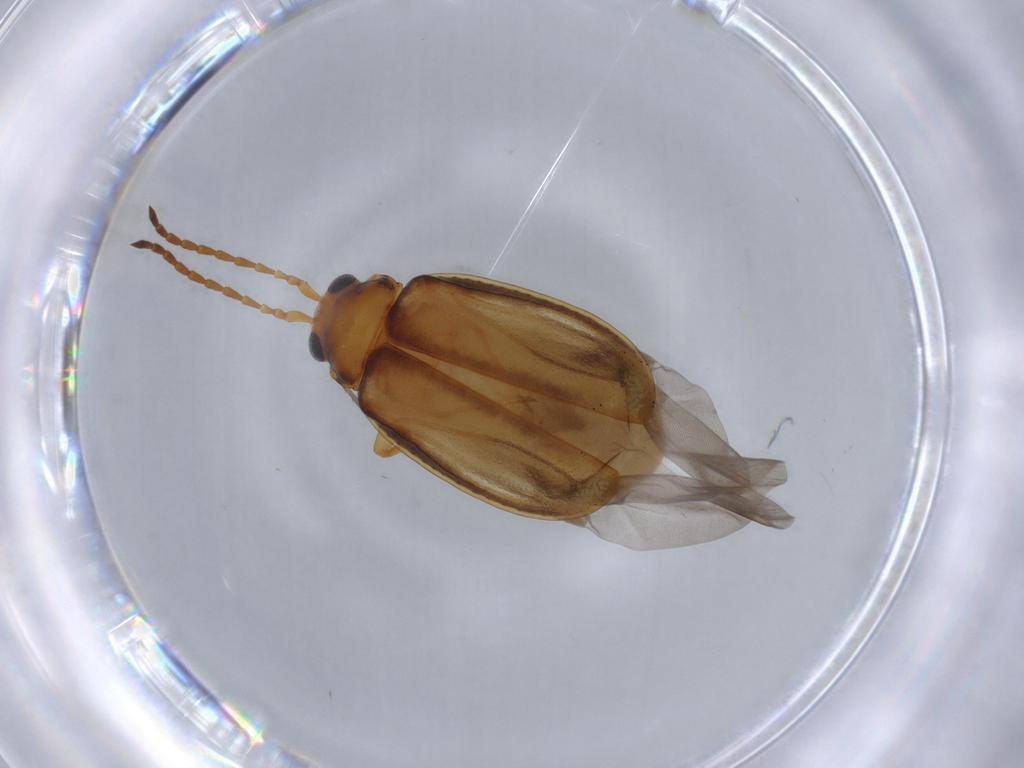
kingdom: Animalia
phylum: Arthropoda
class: Insecta
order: Coleoptera
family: Chrysomelidae
